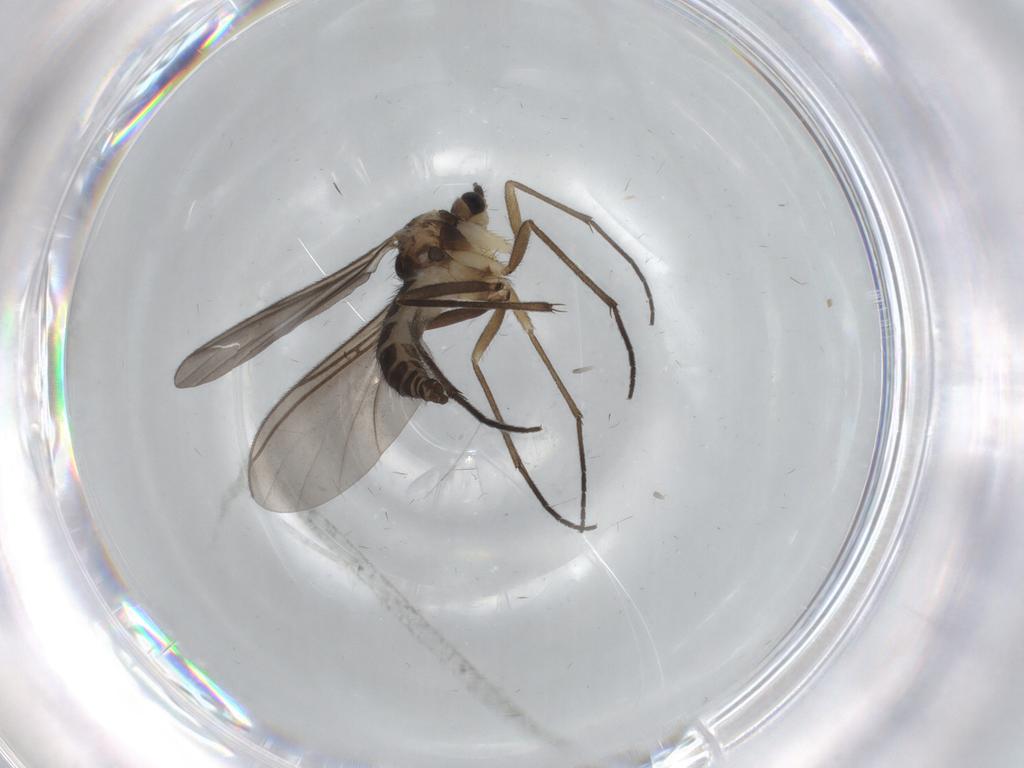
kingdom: Animalia
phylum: Arthropoda
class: Insecta
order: Diptera
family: Sciaridae
